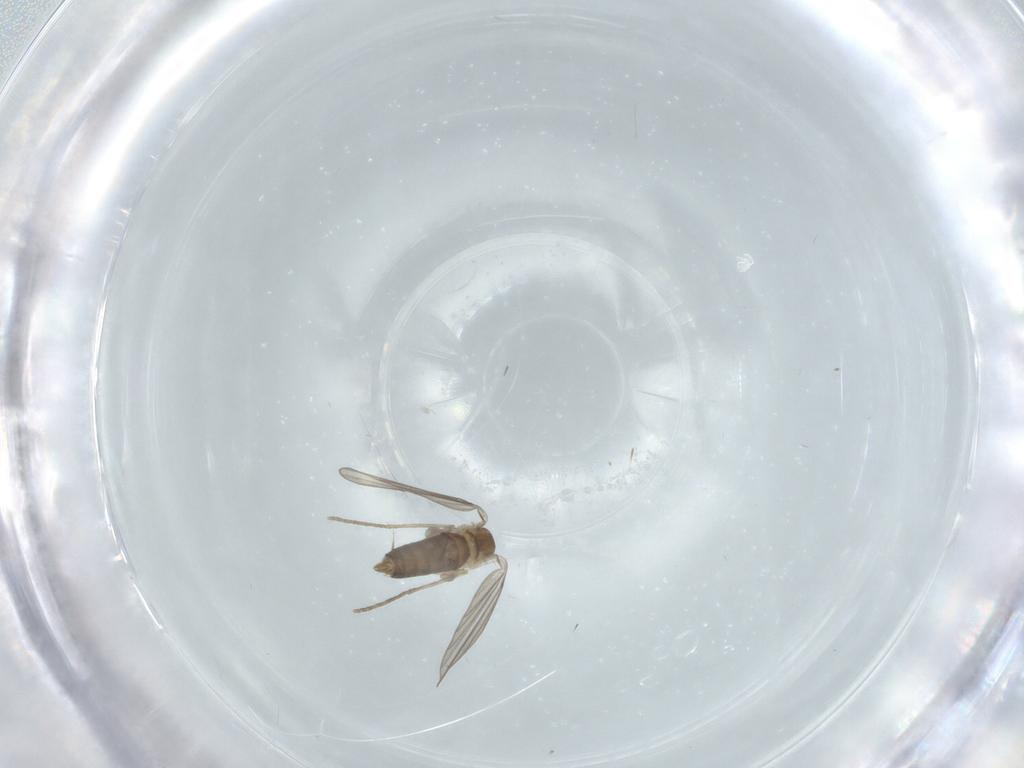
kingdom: Animalia
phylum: Arthropoda
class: Insecta
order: Diptera
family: Psychodidae
